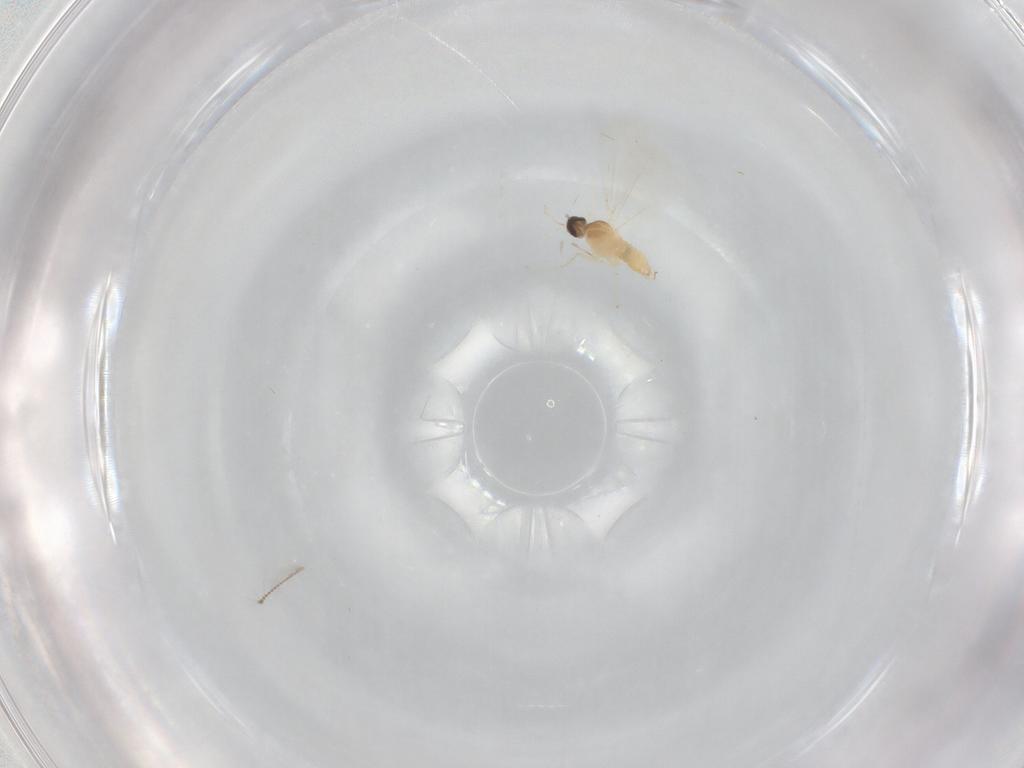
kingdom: Animalia
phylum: Arthropoda
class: Insecta
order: Diptera
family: Cecidomyiidae
